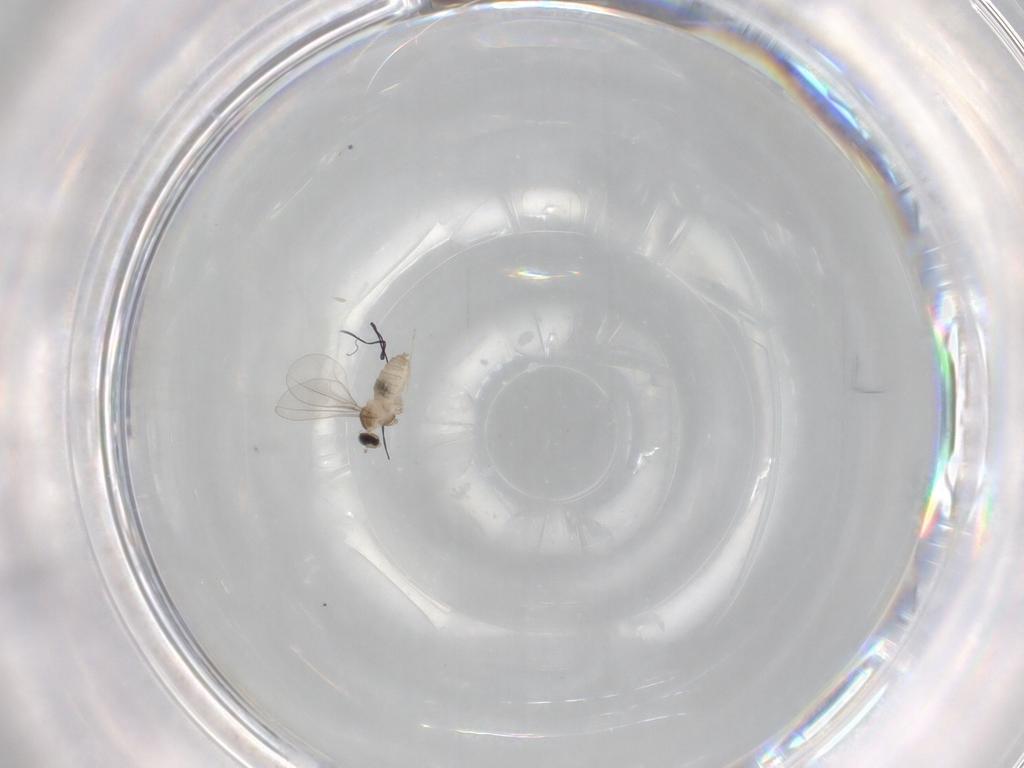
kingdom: Animalia
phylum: Arthropoda
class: Insecta
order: Diptera
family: Cecidomyiidae
